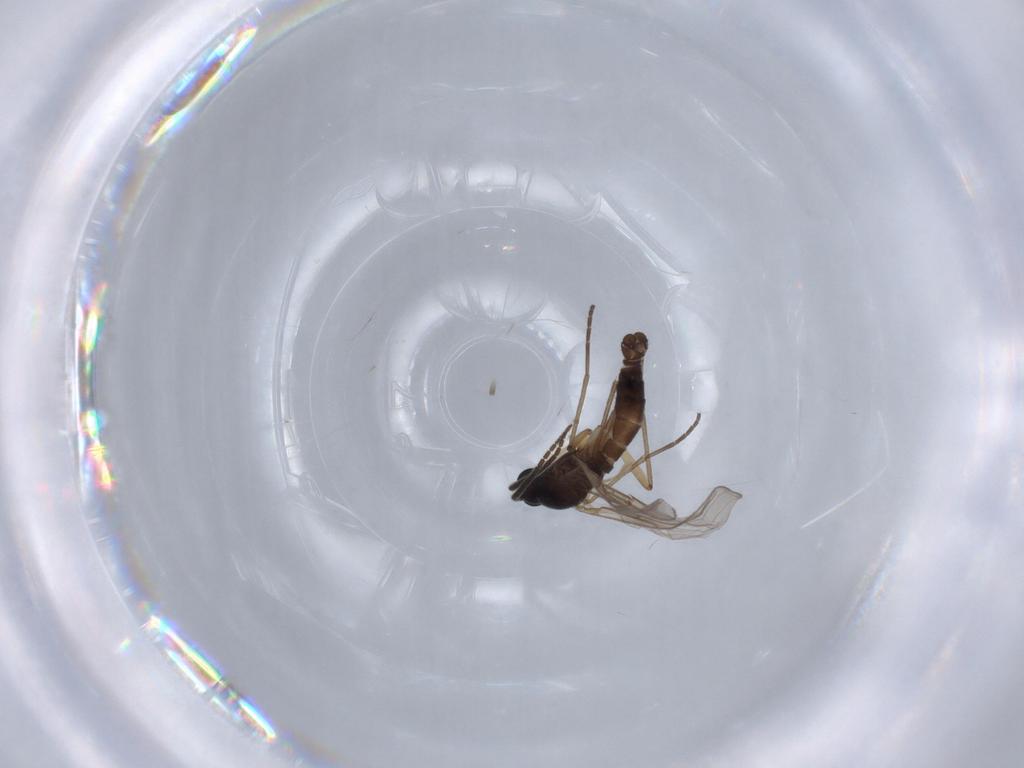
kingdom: Animalia
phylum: Arthropoda
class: Insecta
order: Diptera
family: Sciaridae
